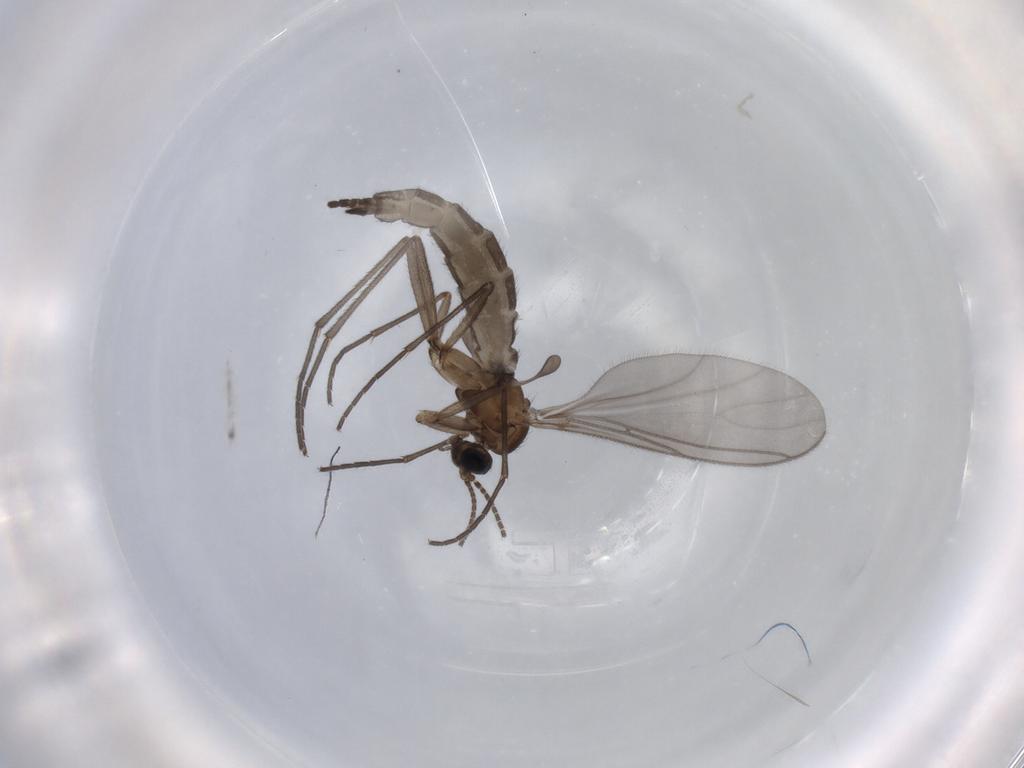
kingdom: Animalia
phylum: Arthropoda
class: Insecta
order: Diptera
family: Sciaridae
